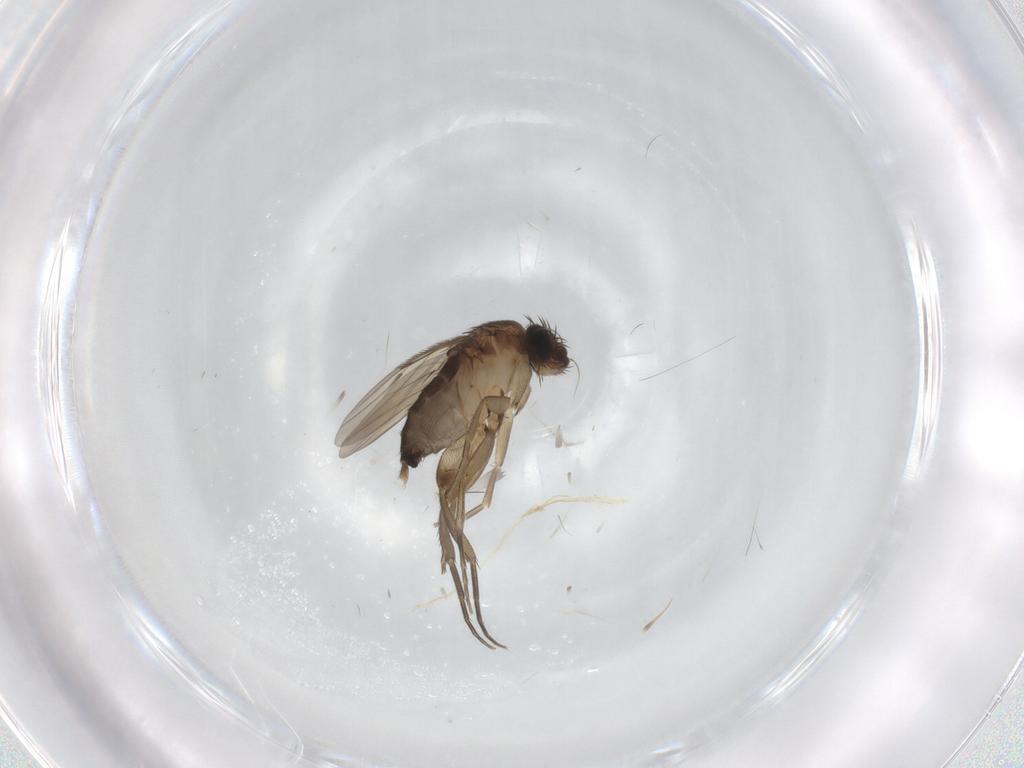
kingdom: Animalia
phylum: Arthropoda
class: Insecta
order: Diptera
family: Phoridae
